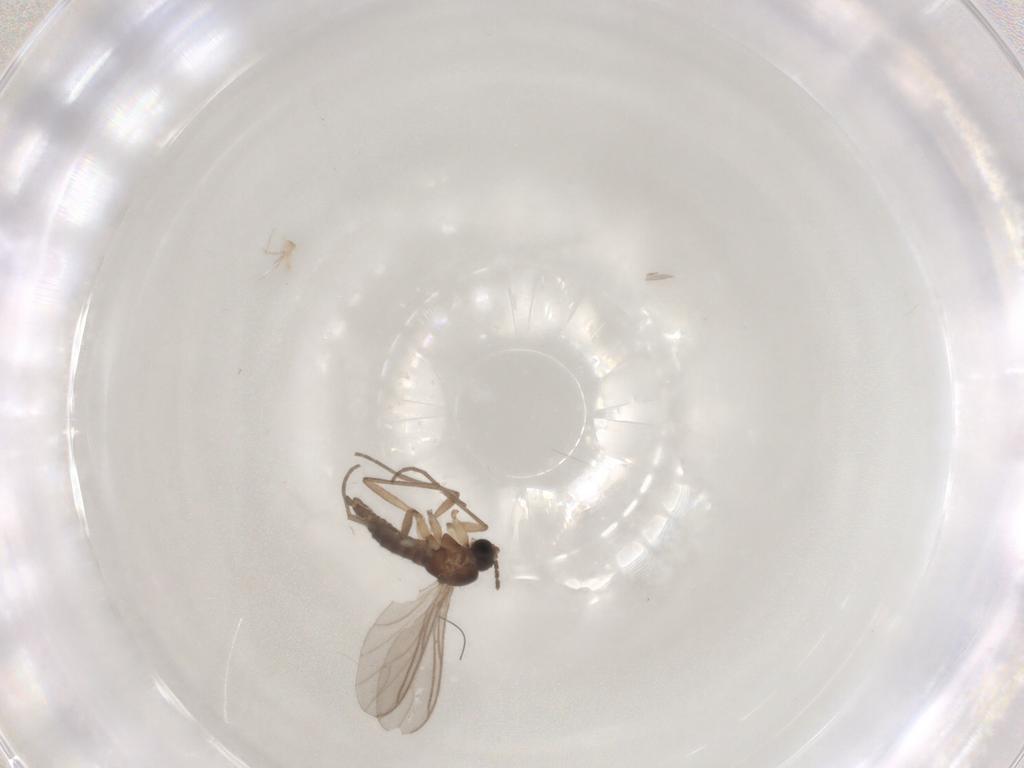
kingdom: Animalia
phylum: Arthropoda
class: Insecta
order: Diptera
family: Sciaridae
